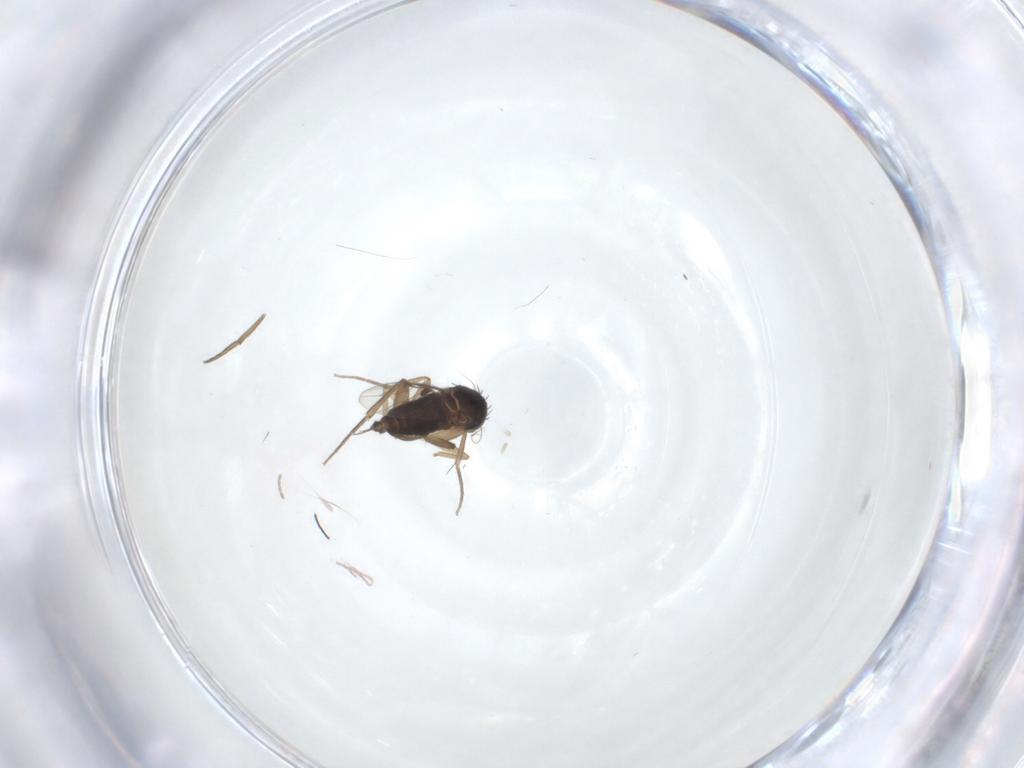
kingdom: Animalia
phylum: Arthropoda
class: Insecta
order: Diptera
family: Phoridae
